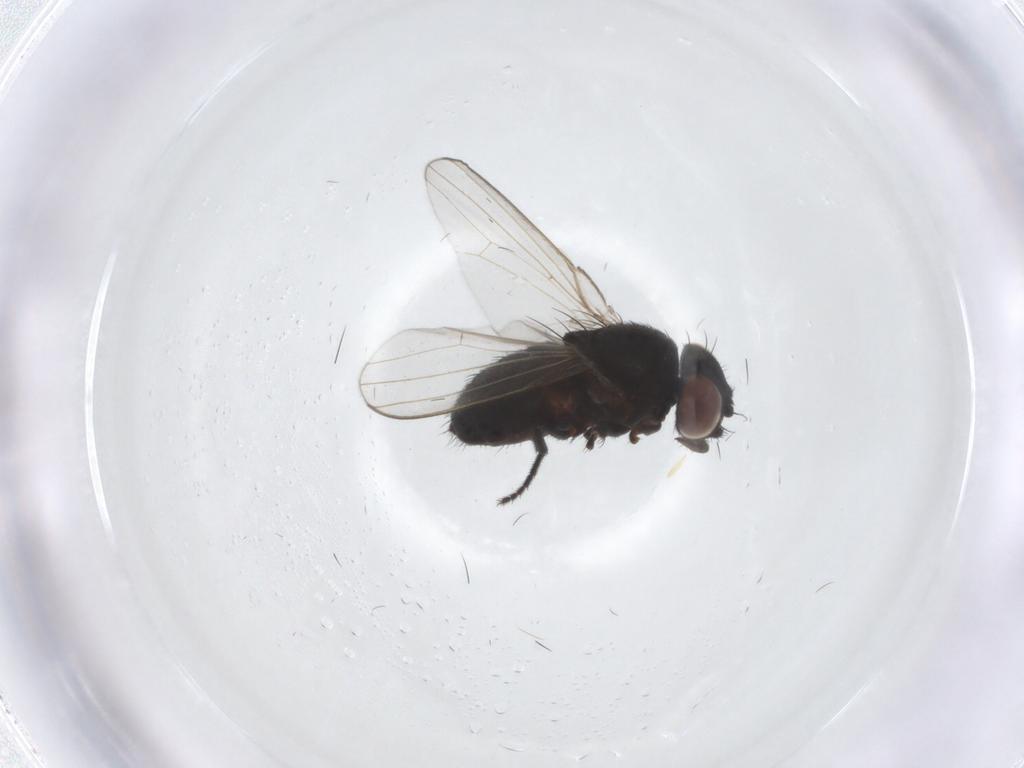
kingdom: Animalia
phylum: Arthropoda
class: Insecta
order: Diptera
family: Milichiidae
